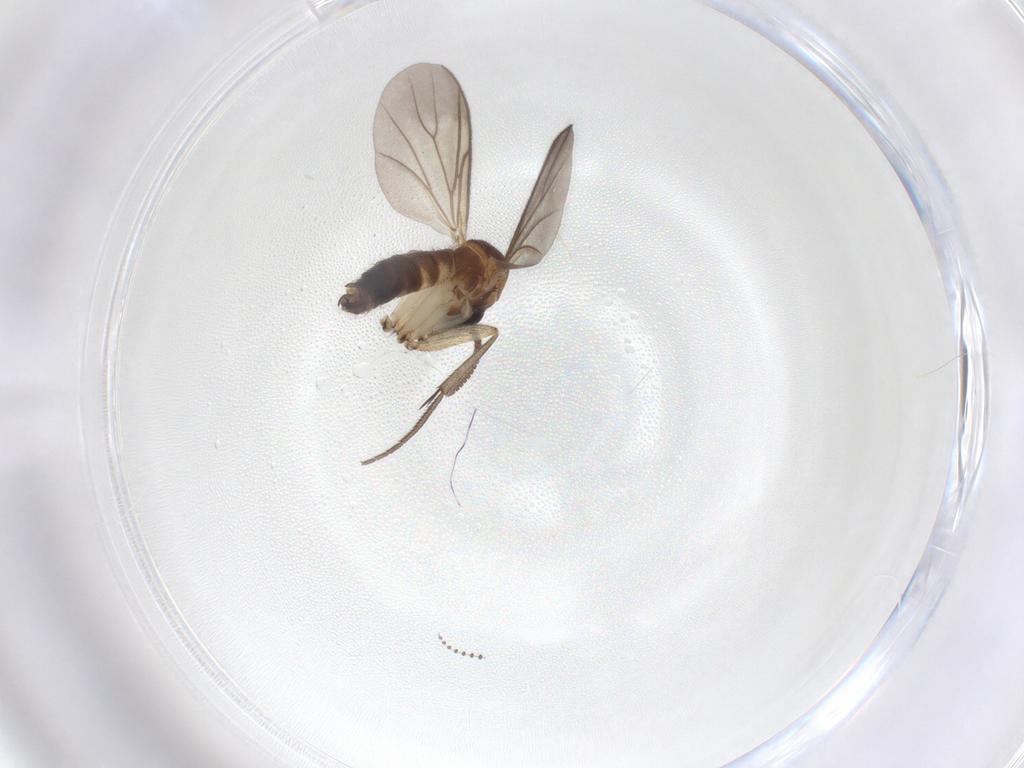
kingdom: Animalia
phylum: Arthropoda
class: Insecta
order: Diptera
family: Mycetophilidae
